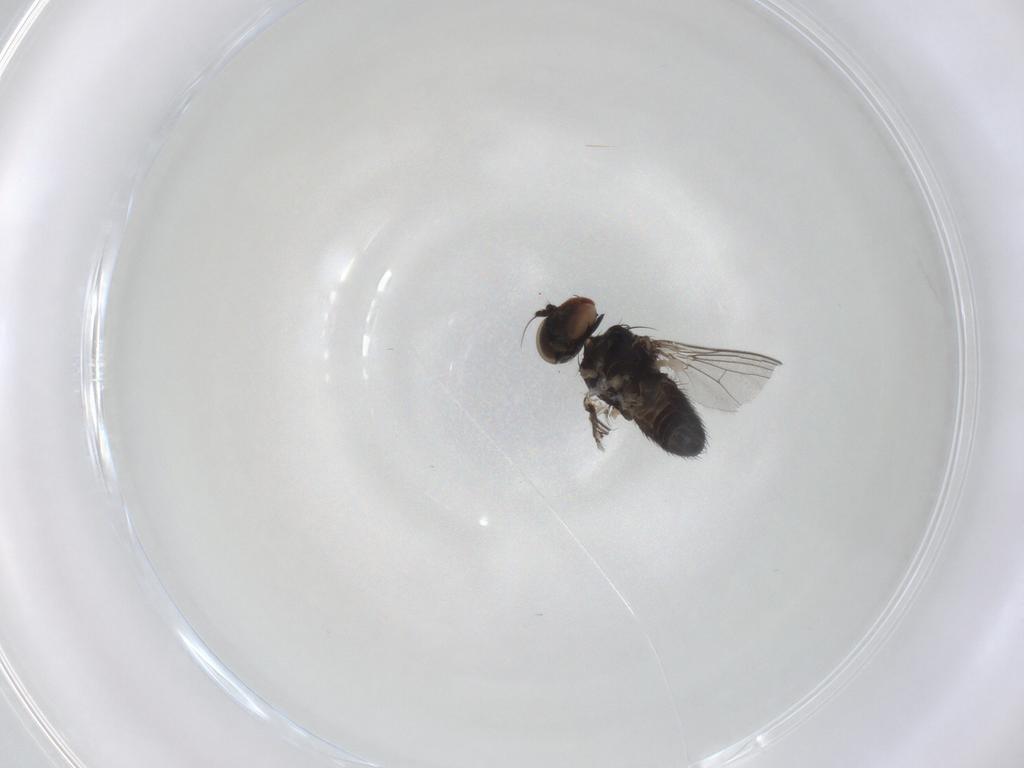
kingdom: Animalia
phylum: Arthropoda
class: Insecta
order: Diptera
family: Dolichopodidae
